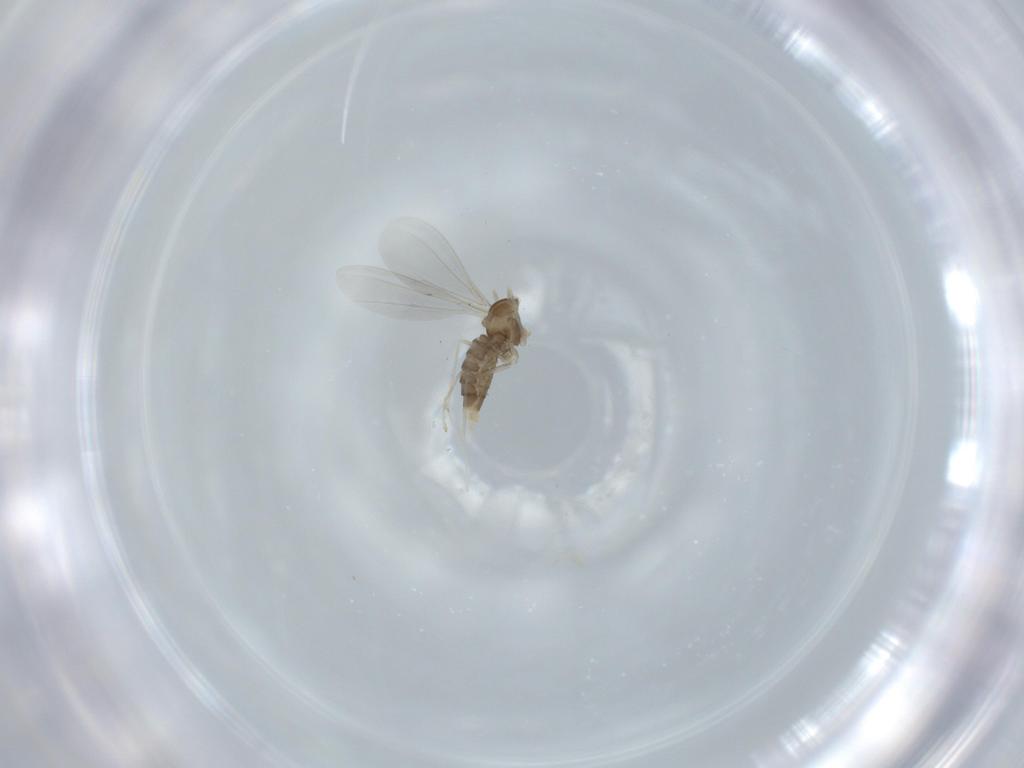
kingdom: Animalia
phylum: Arthropoda
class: Insecta
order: Diptera
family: Cecidomyiidae
